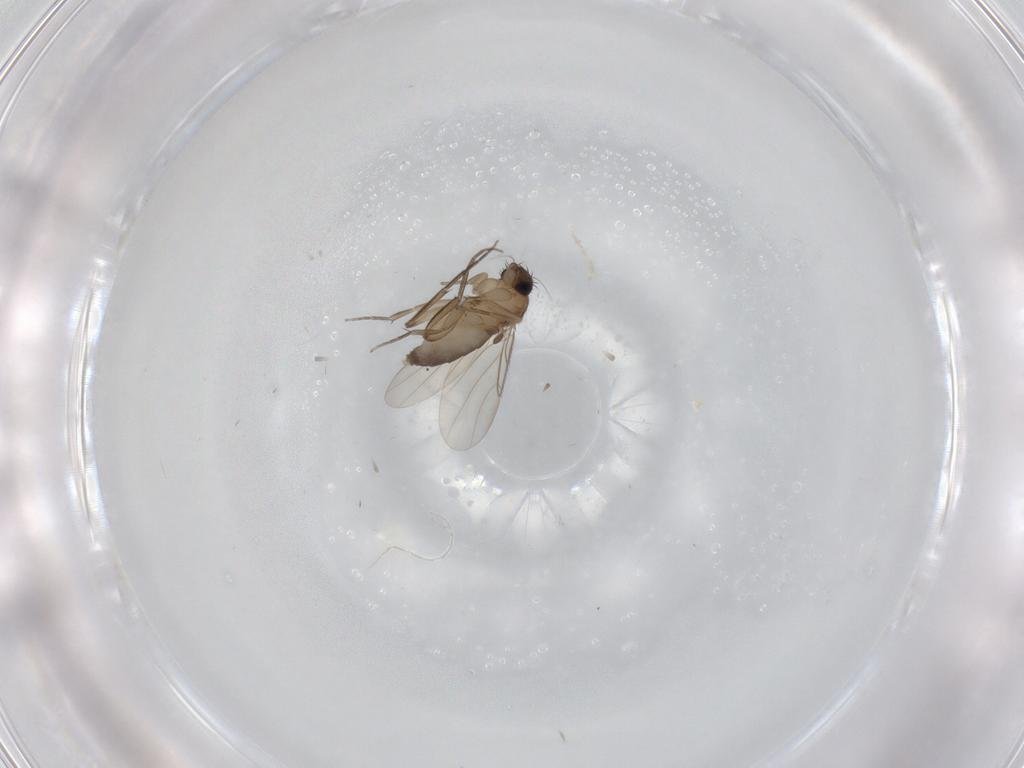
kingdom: Animalia
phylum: Arthropoda
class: Insecta
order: Diptera
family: Phoridae
